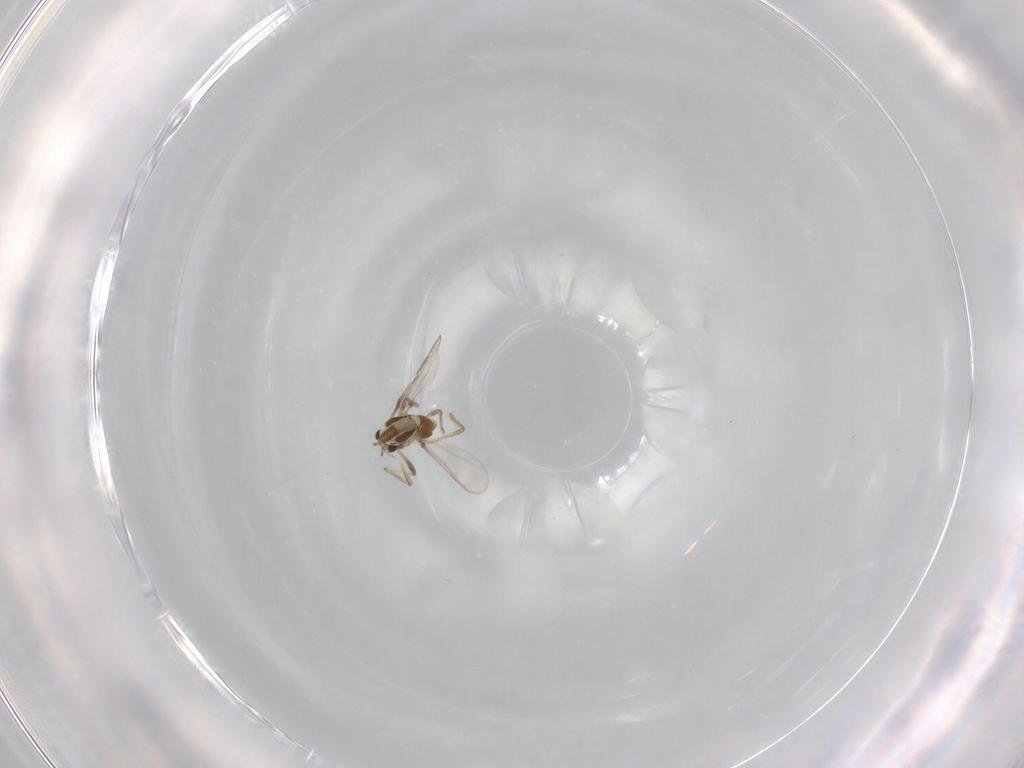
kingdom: Animalia
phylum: Arthropoda
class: Insecta
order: Diptera
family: Chironomidae
